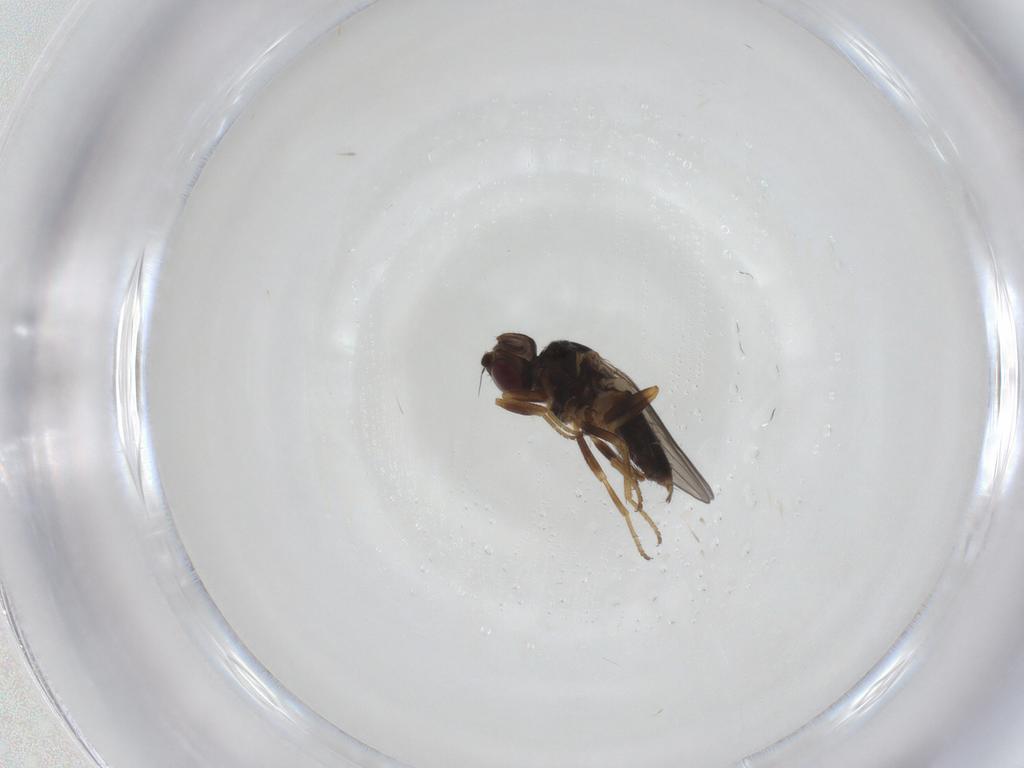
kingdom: Animalia
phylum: Arthropoda
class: Insecta
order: Diptera
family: Chloropidae
